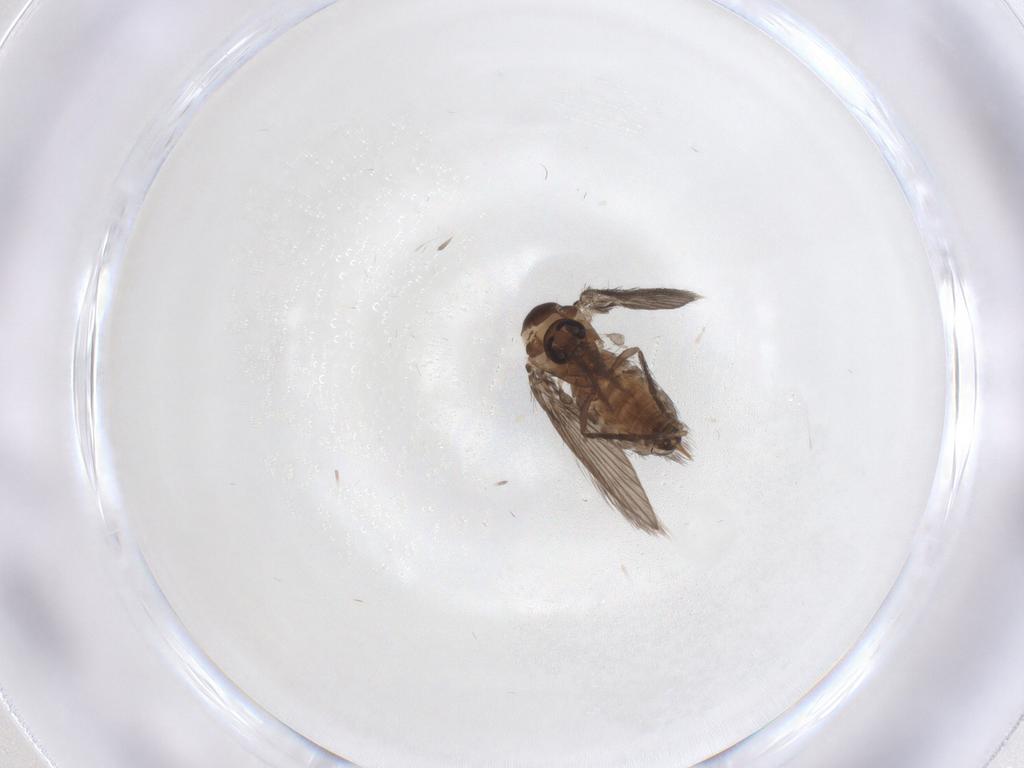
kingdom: Animalia
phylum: Arthropoda
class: Insecta
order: Diptera
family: Psychodidae
